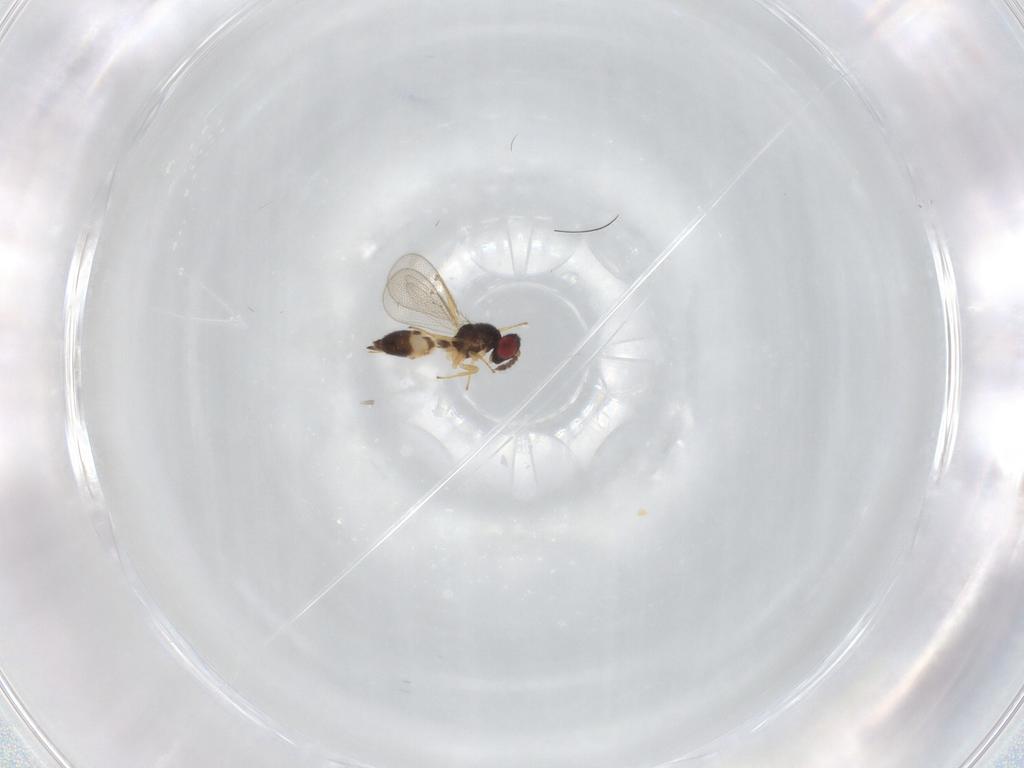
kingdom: Animalia
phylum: Arthropoda
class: Insecta
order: Hymenoptera
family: Eulophidae
